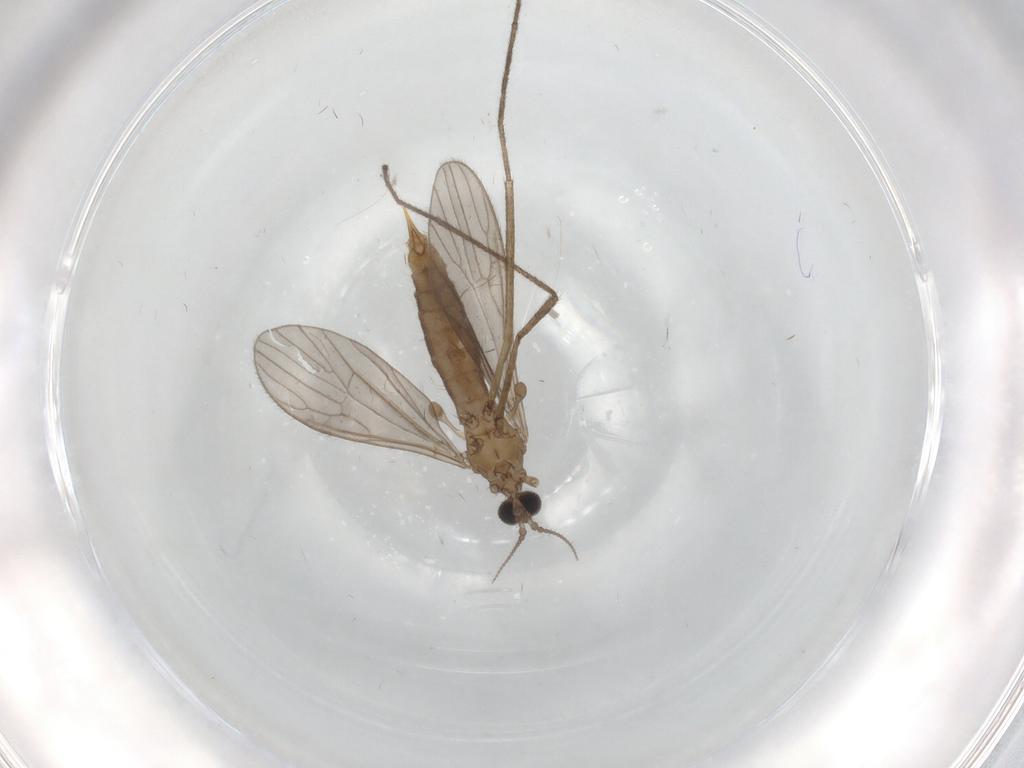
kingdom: Animalia
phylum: Arthropoda
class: Insecta
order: Diptera
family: Limoniidae
